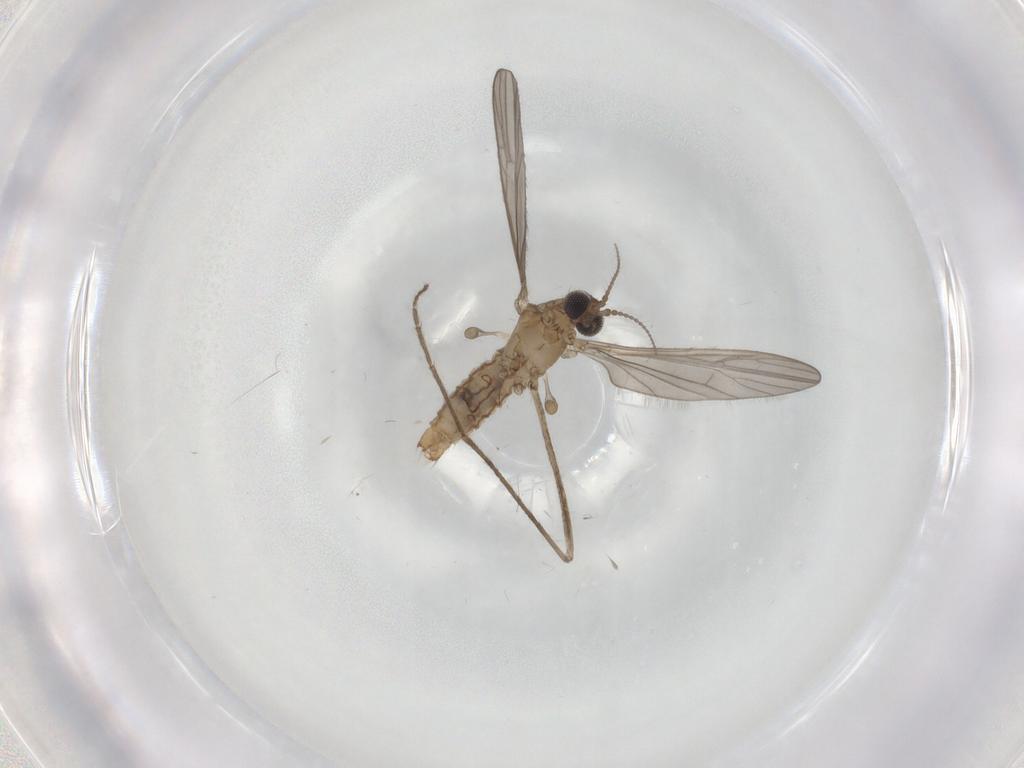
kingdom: Animalia
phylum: Arthropoda
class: Insecta
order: Diptera
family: Limoniidae
